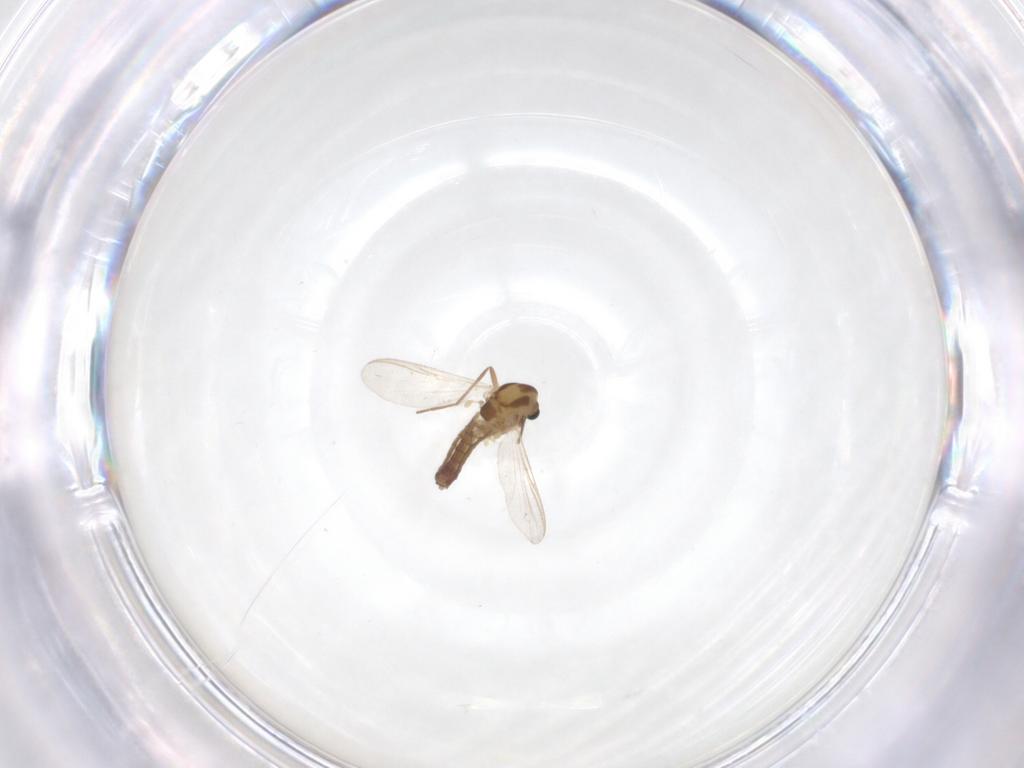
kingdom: Animalia
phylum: Arthropoda
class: Insecta
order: Diptera
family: Chironomidae
